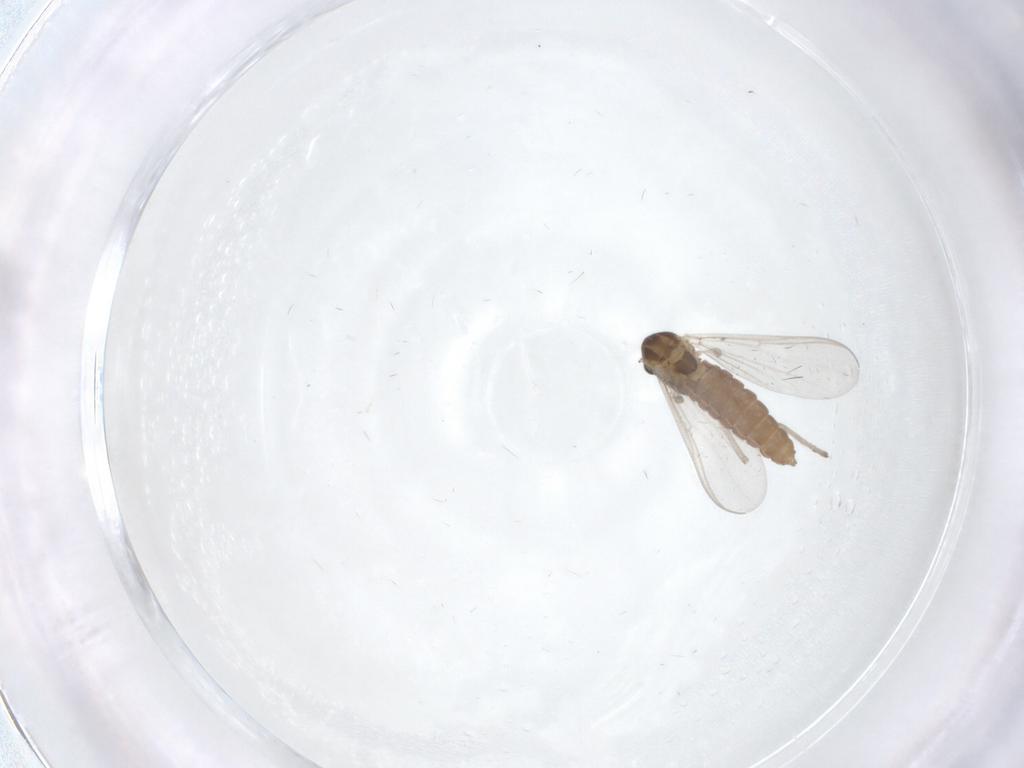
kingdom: Animalia
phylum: Arthropoda
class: Insecta
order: Diptera
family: Chironomidae
